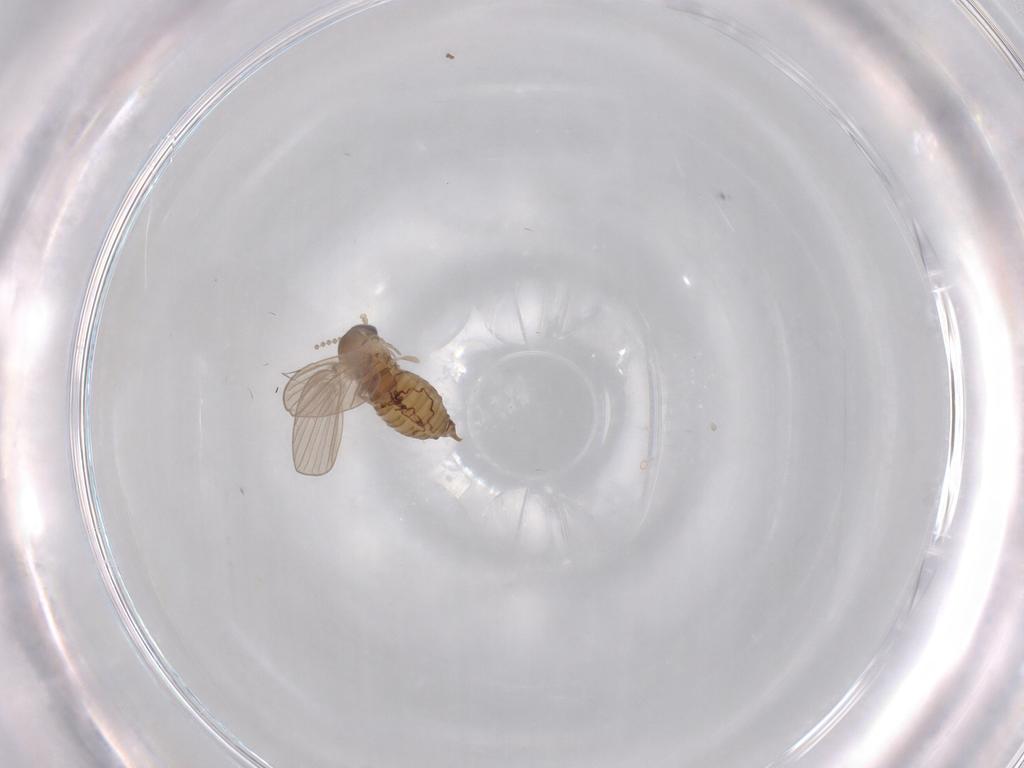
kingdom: Animalia
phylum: Arthropoda
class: Insecta
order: Diptera
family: Psychodidae
